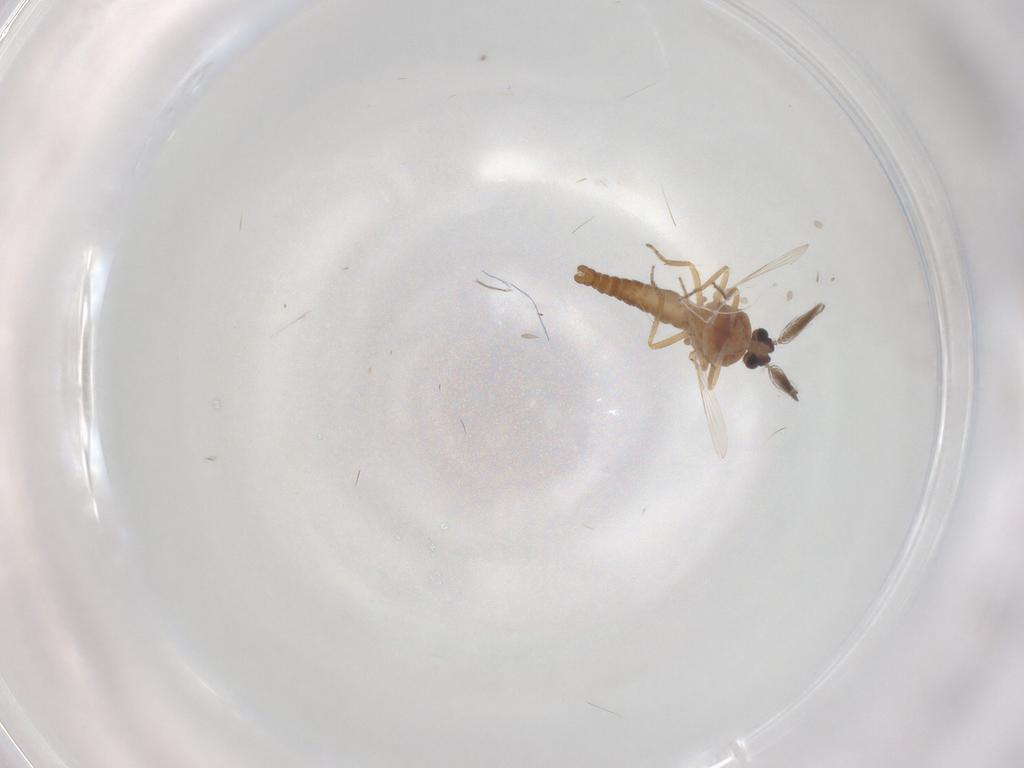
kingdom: Animalia
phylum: Arthropoda
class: Insecta
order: Diptera
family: Ceratopogonidae
